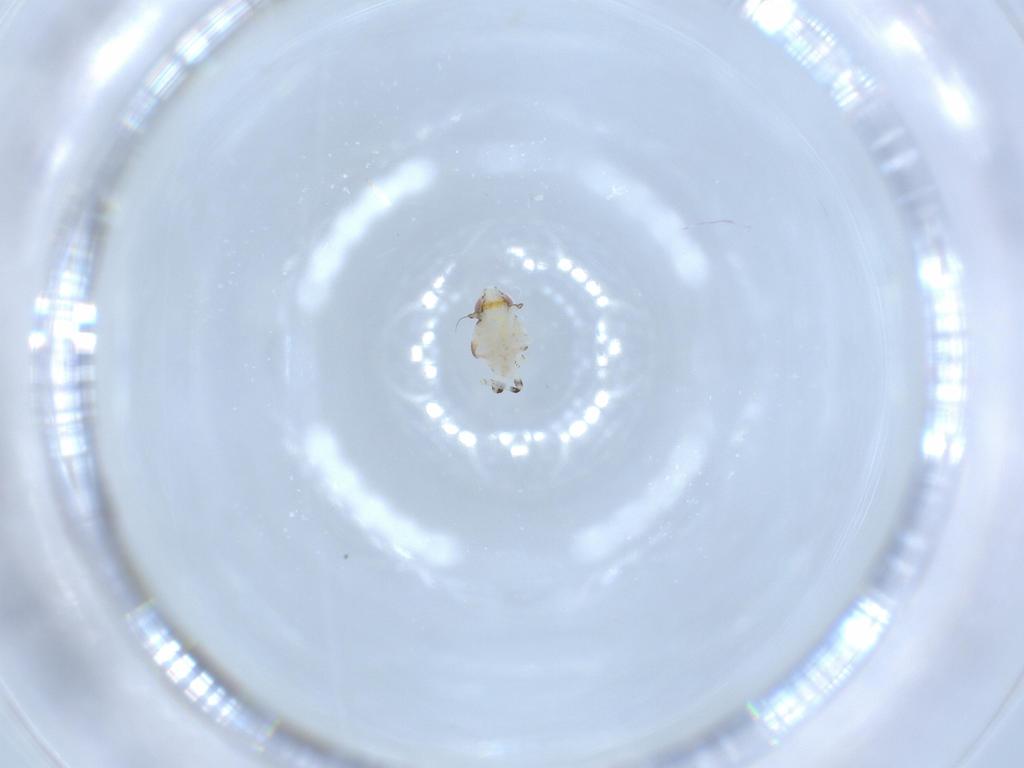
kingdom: Animalia
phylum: Arthropoda
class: Insecta
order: Hemiptera
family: Nogodinidae
